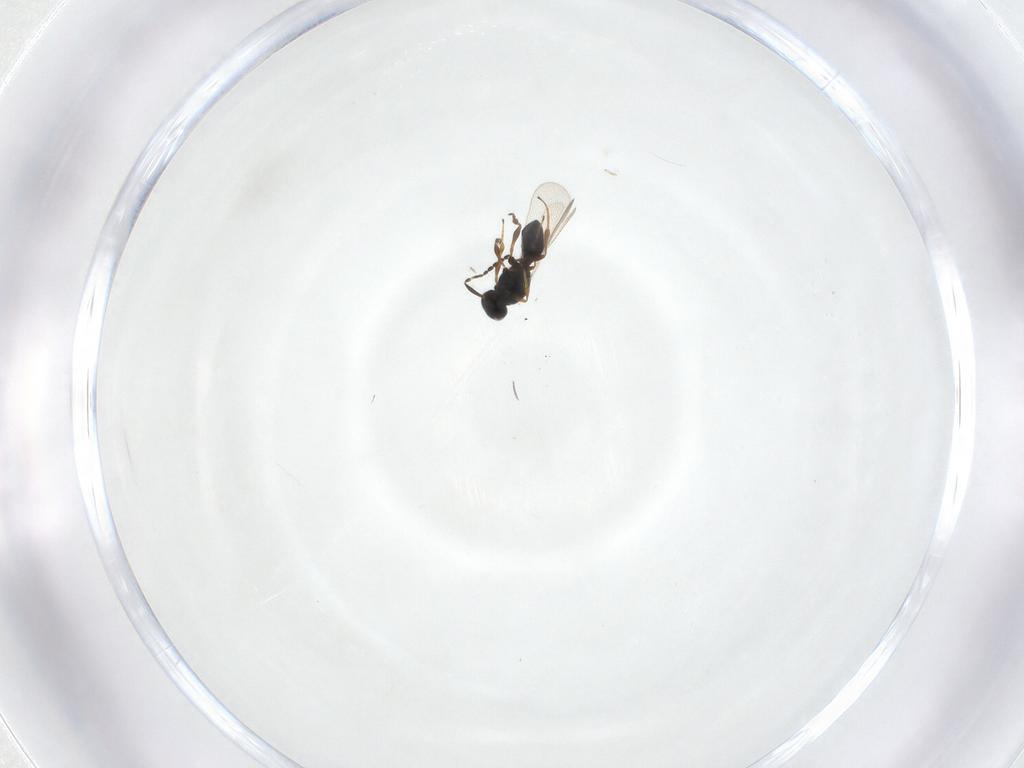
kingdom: Animalia
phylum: Arthropoda
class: Insecta
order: Hymenoptera
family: Platygastridae
